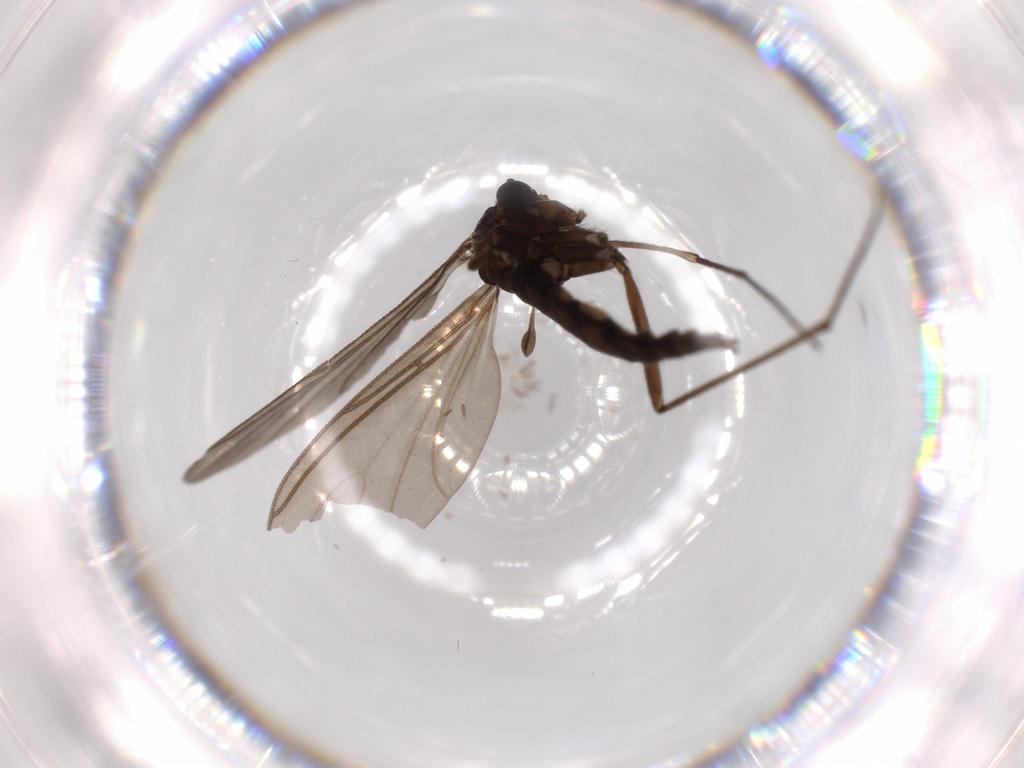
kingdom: Animalia
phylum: Arthropoda
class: Insecta
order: Diptera
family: Sciaridae
